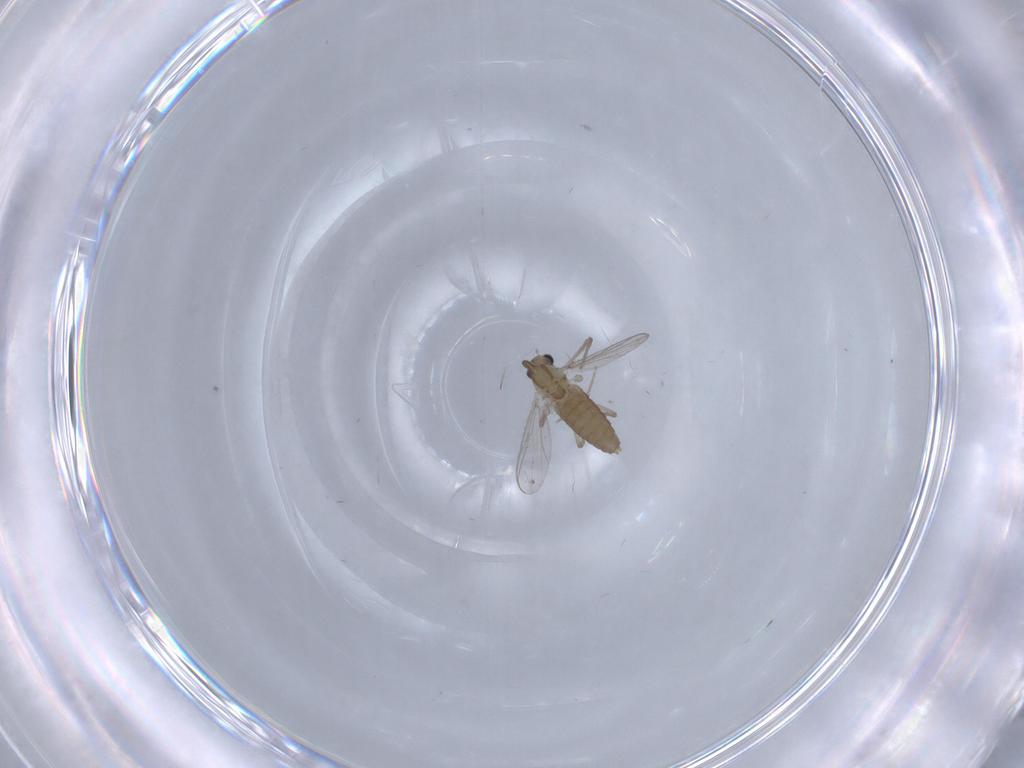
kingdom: Animalia
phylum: Arthropoda
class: Insecta
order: Diptera
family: Chironomidae
